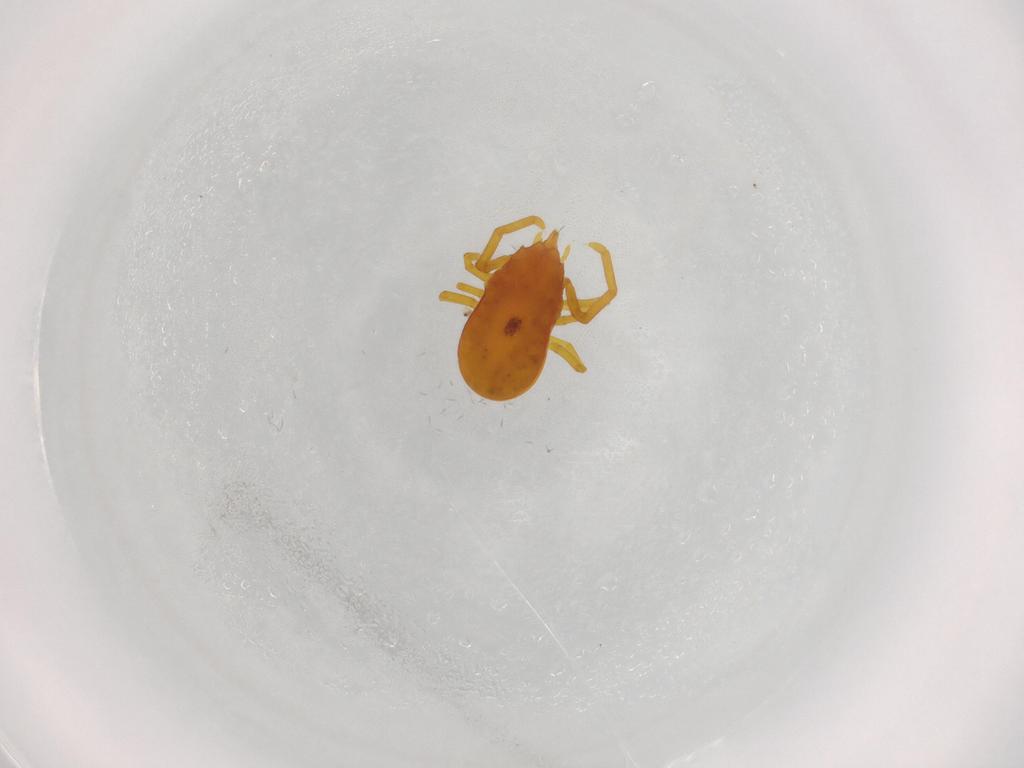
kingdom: Animalia
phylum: Arthropoda
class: Arachnida
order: Trombidiformes
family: Labidostommidae
